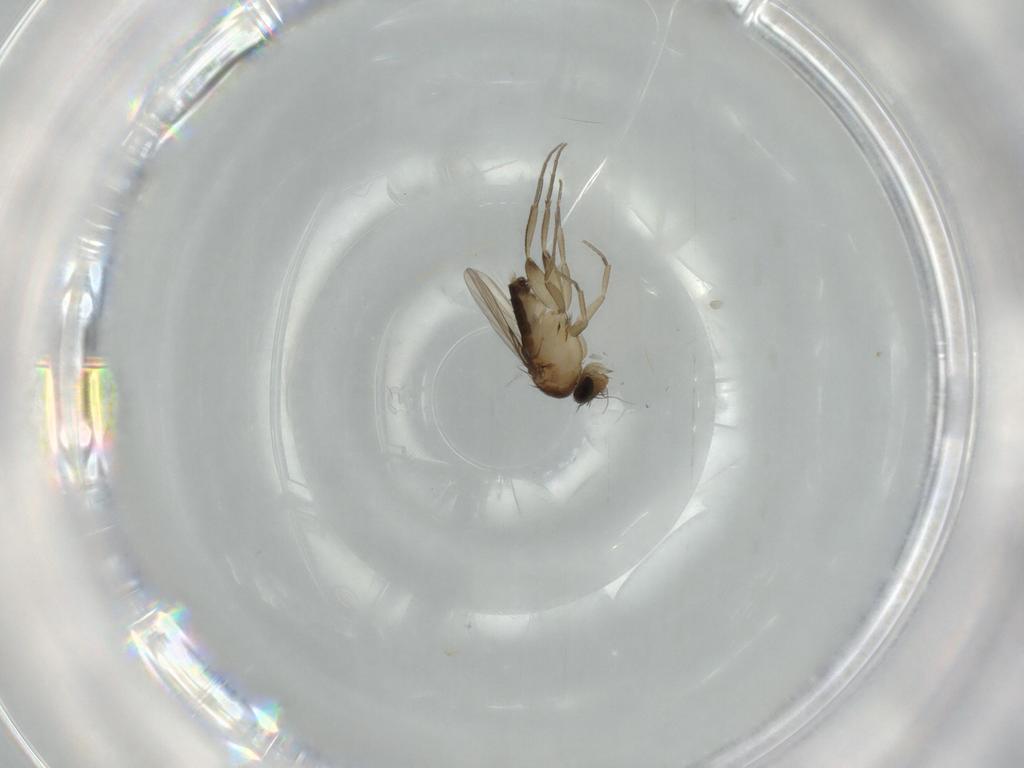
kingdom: Animalia
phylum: Arthropoda
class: Insecta
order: Diptera
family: Phoridae
